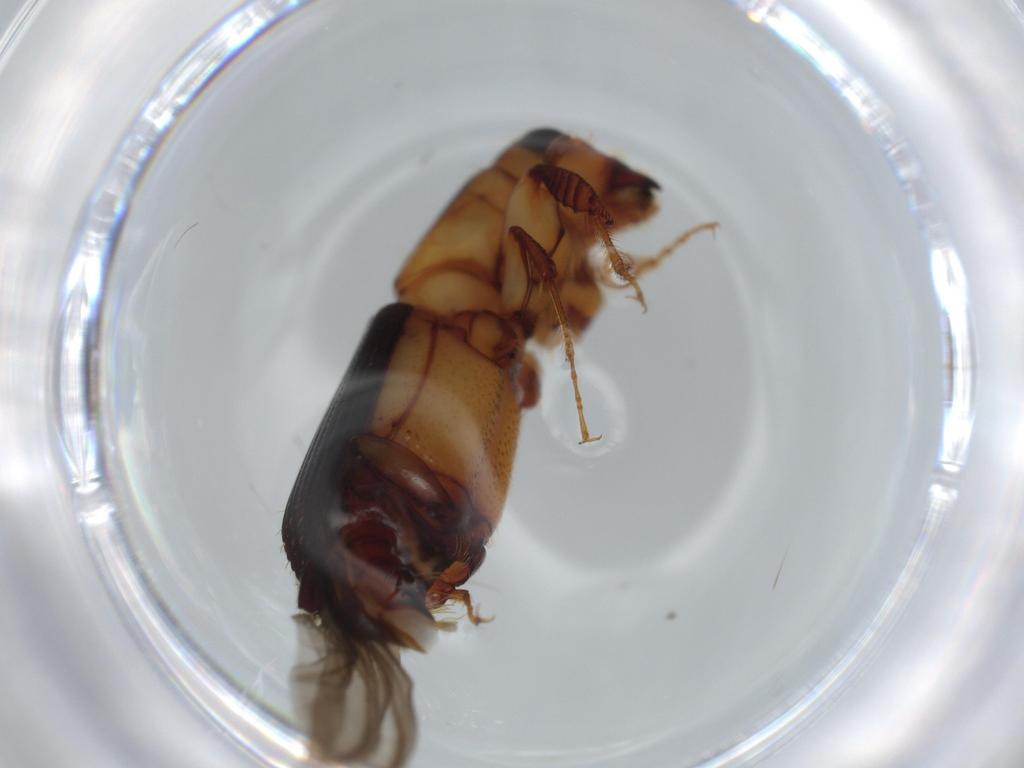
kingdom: Animalia
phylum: Arthropoda
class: Insecta
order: Coleoptera
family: Curculionidae
